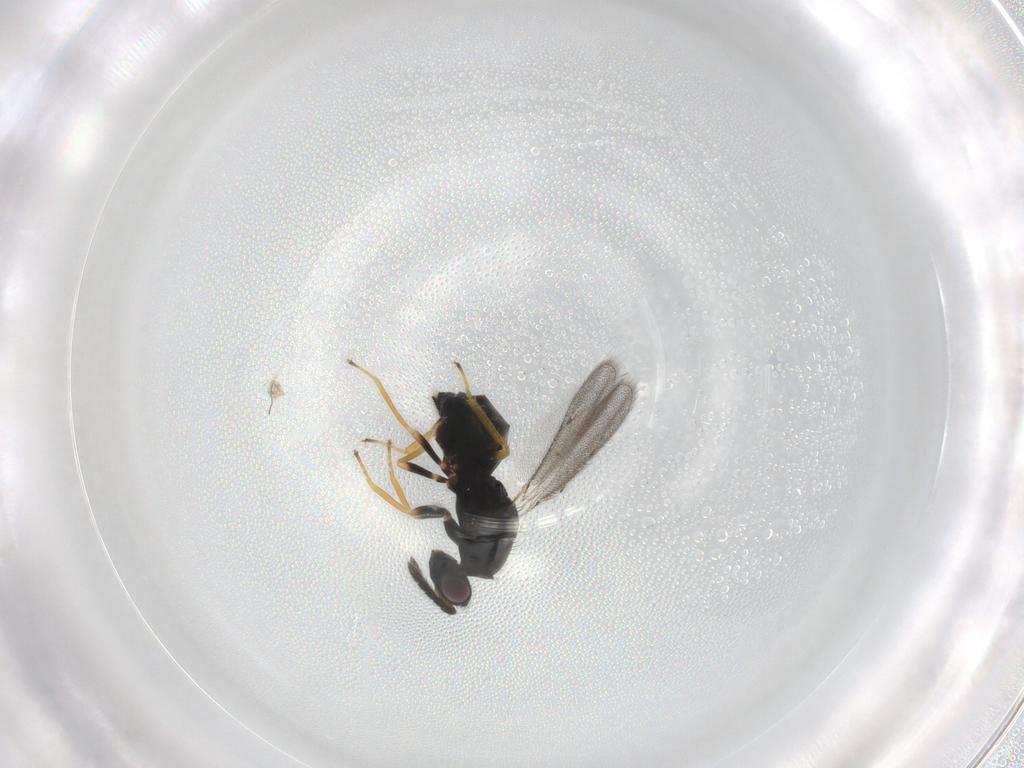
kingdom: Animalia
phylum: Arthropoda
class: Insecta
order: Hymenoptera
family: Eulophidae
